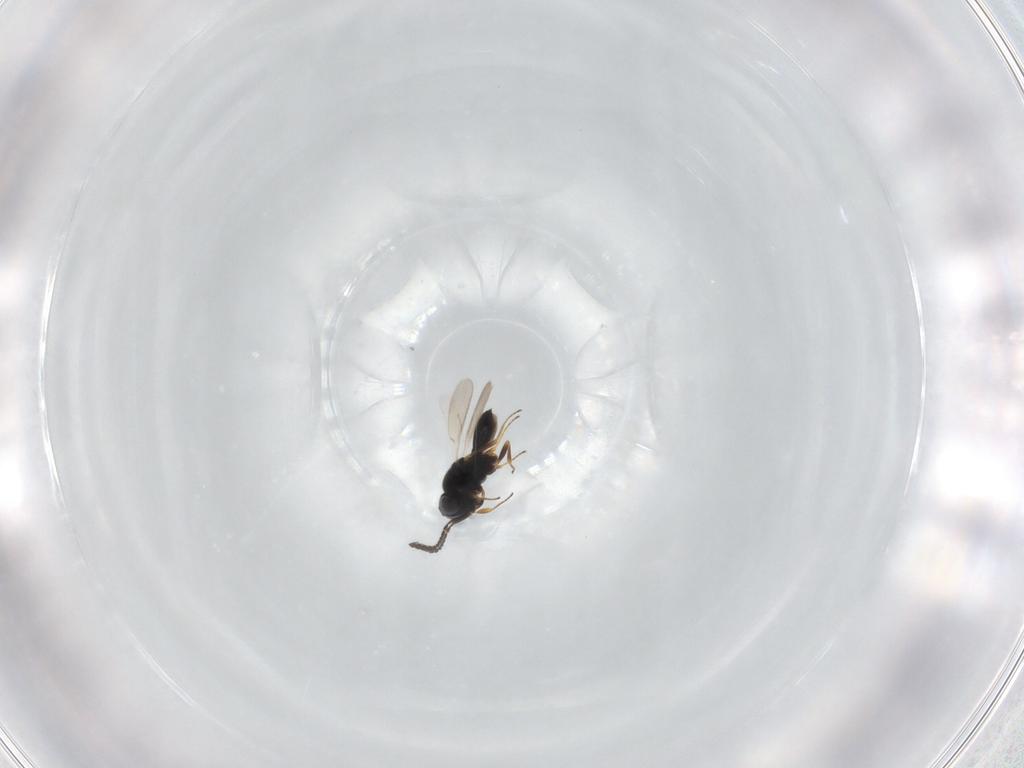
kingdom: Animalia
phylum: Arthropoda
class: Insecta
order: Hymenoptera
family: Scelionidae
